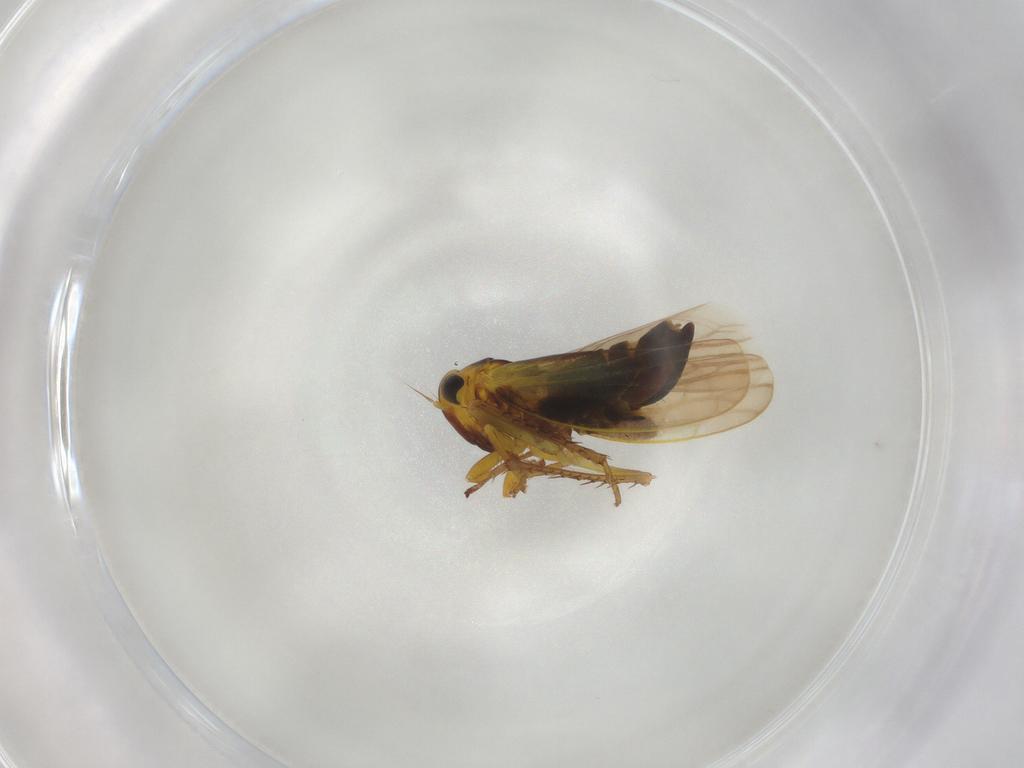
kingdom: Animalia
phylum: Arthropoda
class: Insecta
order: Hemiptera
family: Cicadellidae
